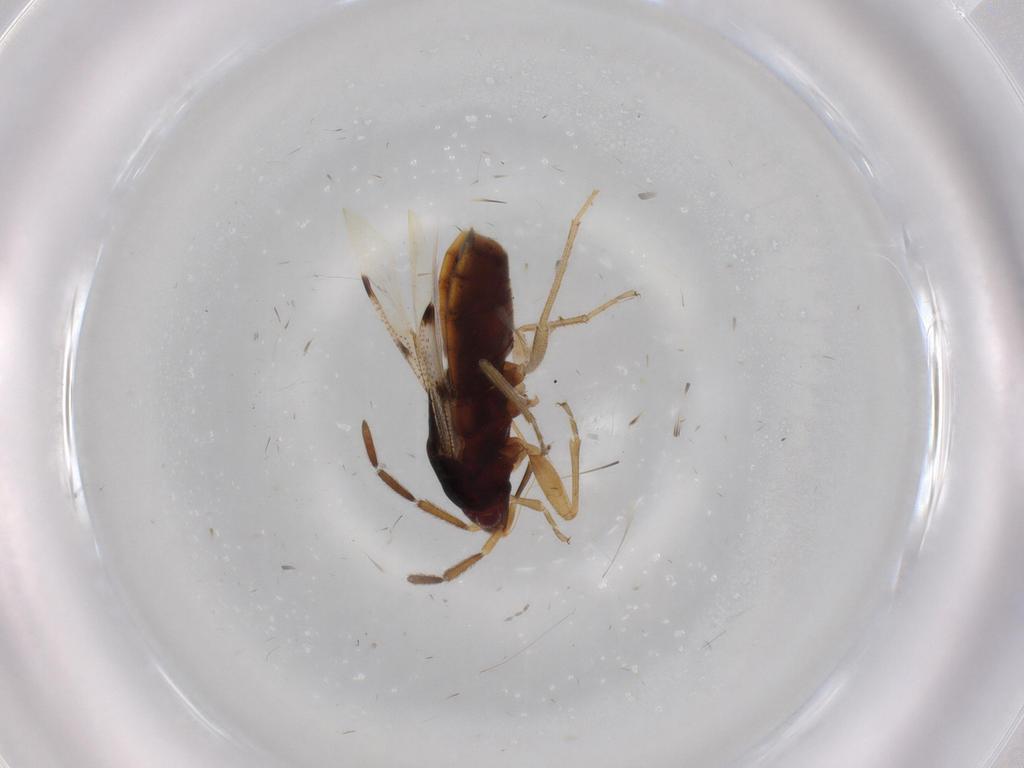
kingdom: Animalia
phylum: Arthropoda
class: Insecta
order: Hemiptera
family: Rhyparochromidae
